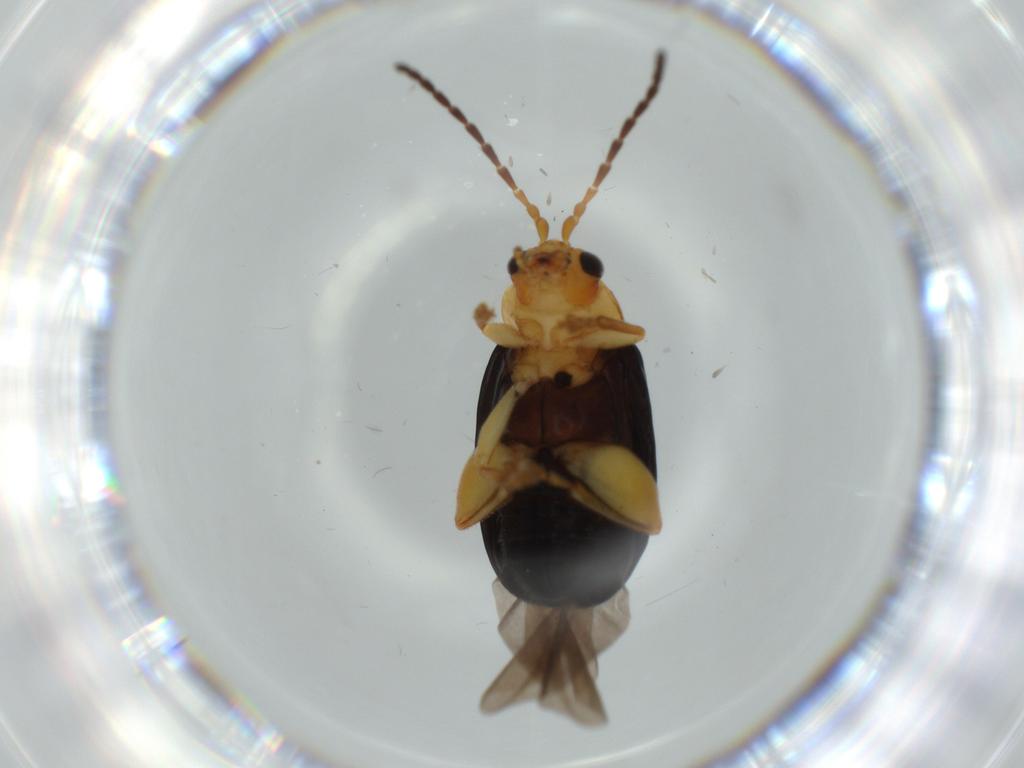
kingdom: Animalia
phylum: Arthropoda
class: Insecta
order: Coleoptera
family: Chrysomelidae
